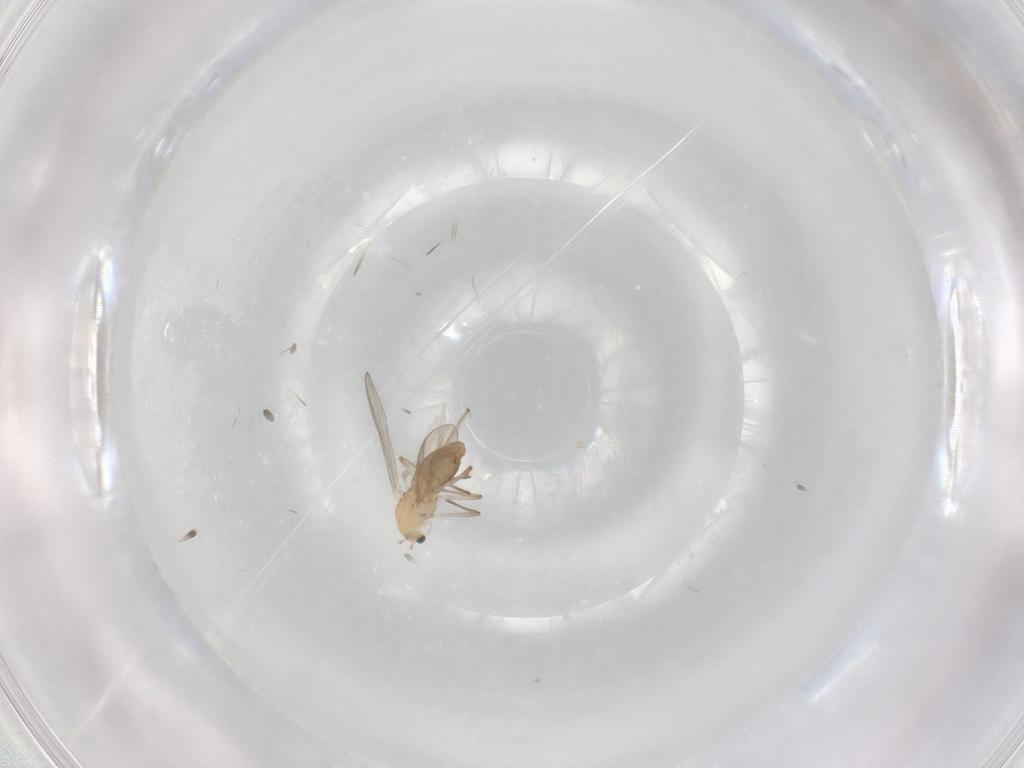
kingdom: Animalia
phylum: Arthropoda
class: Insecta
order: Diptera
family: Chironomidae
